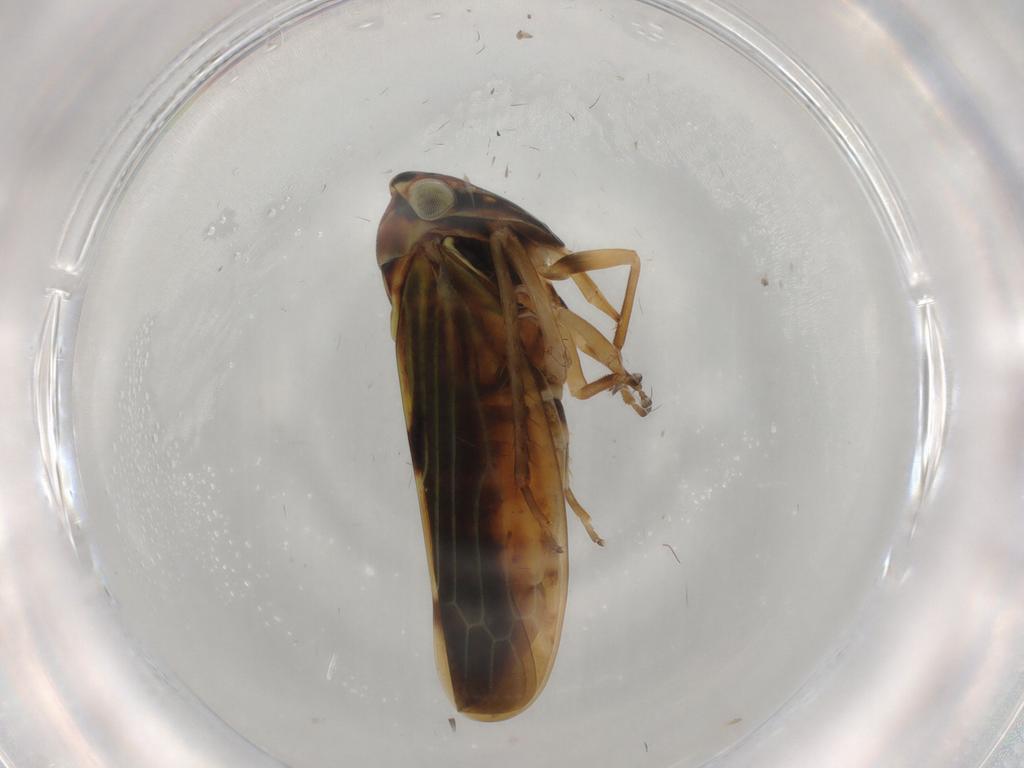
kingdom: Animalia
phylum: Arthropoda
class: Insecta
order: Hemiptera
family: Cicadellidae
